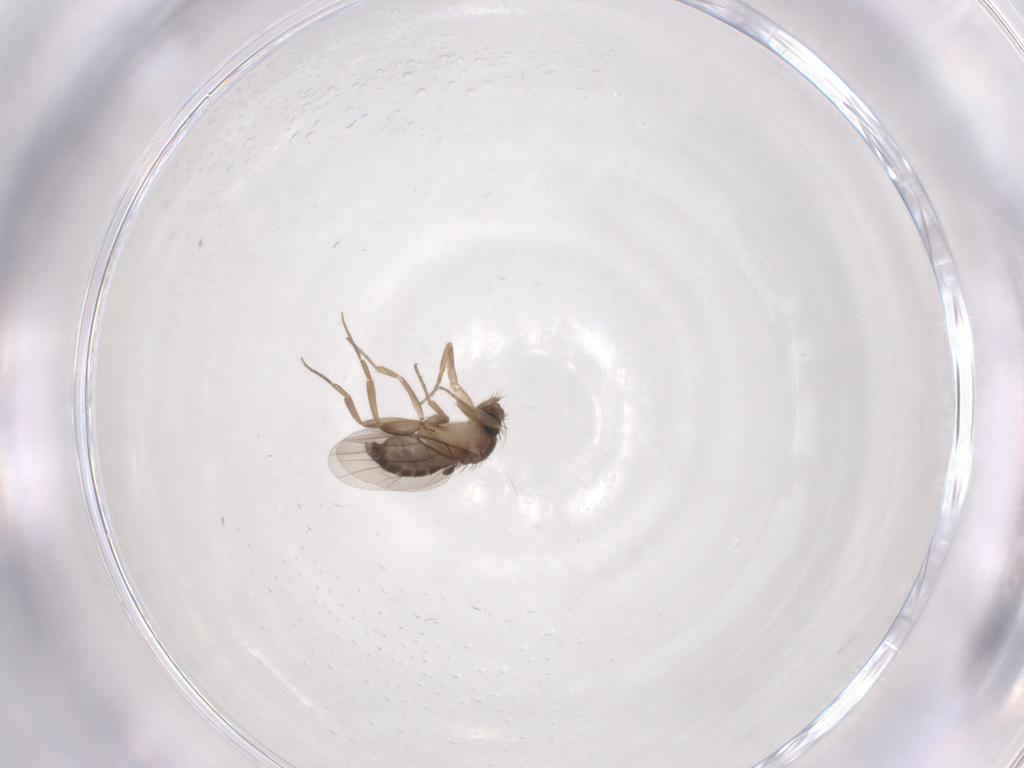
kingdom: Animalia
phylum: Arthropoda
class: Insecta
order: Diptera
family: Phoridae
